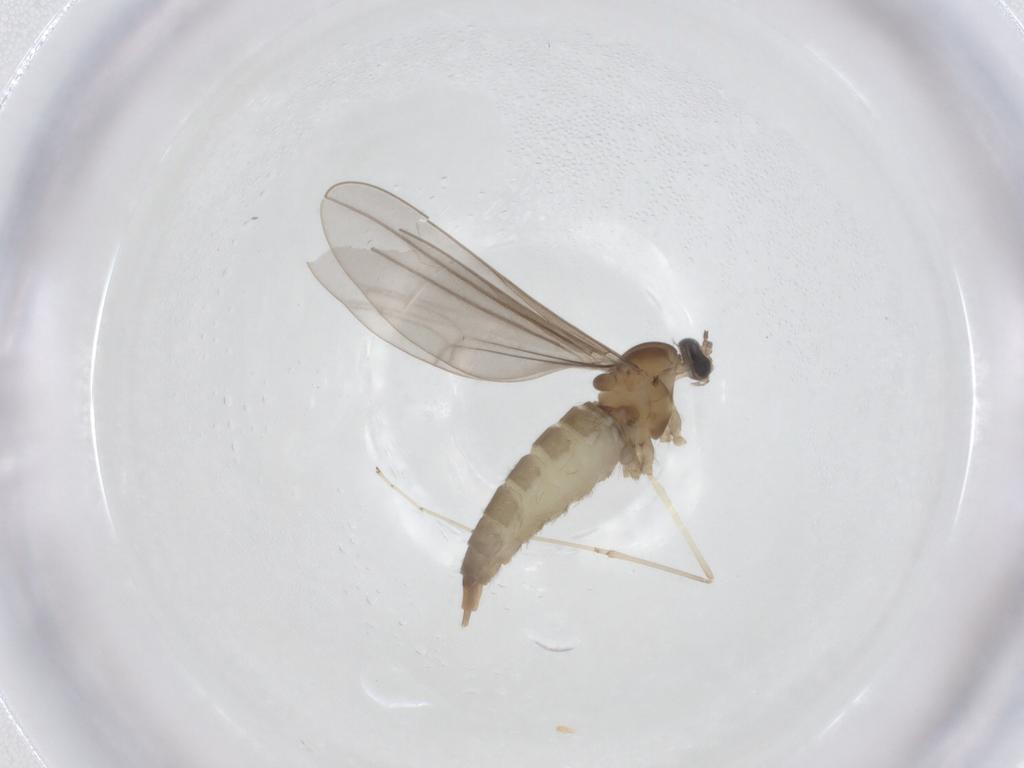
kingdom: Animalia
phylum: Arthropoda
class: Insecta
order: Diptera
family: Cecidomyiidae
